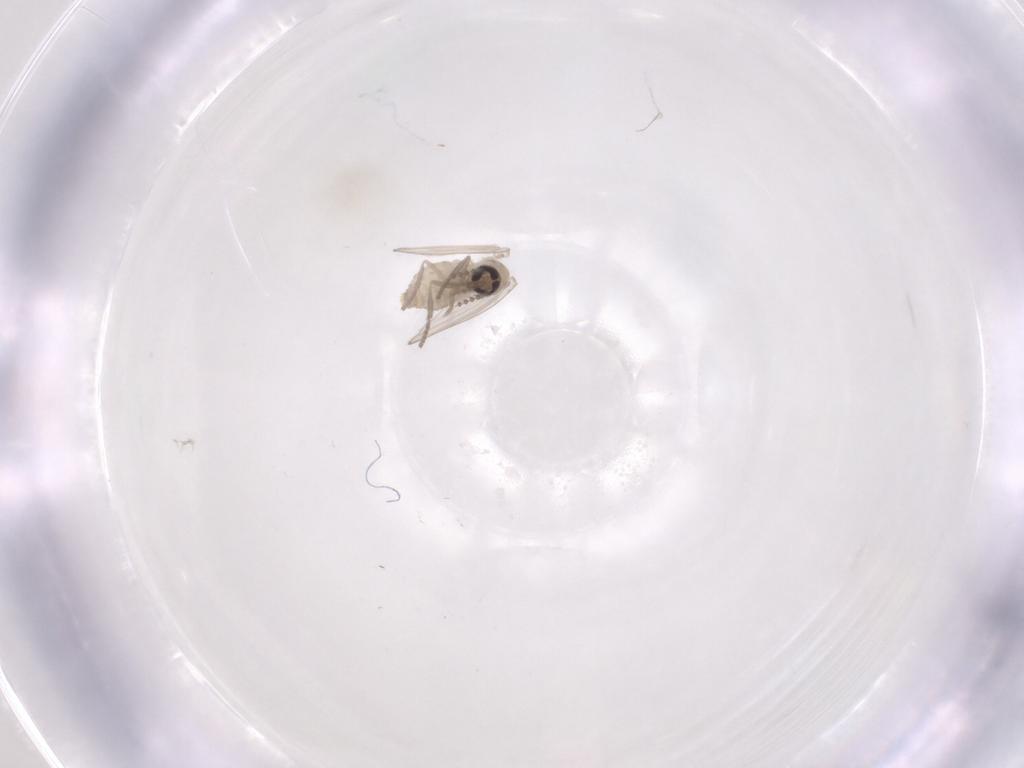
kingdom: Animalia
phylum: Arthropoda
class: Insecta
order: Diptera
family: Psychodidae
